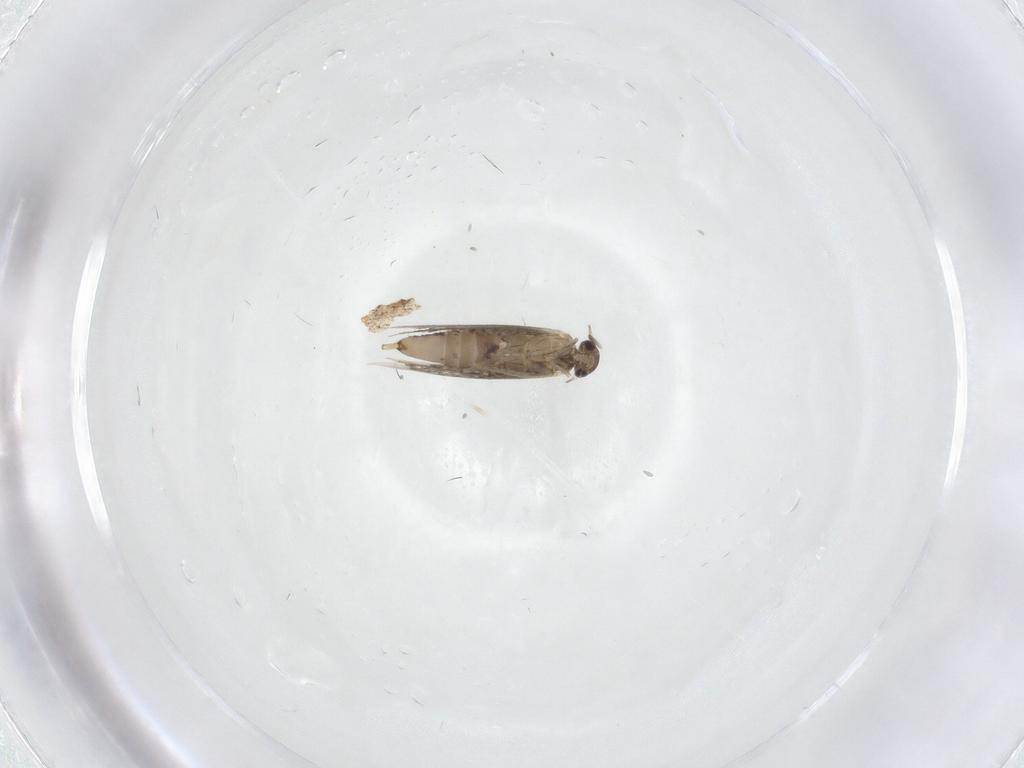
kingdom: Animalia
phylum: Arthropoda
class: Insecta
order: Lepidoptera
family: Heliozelidae
